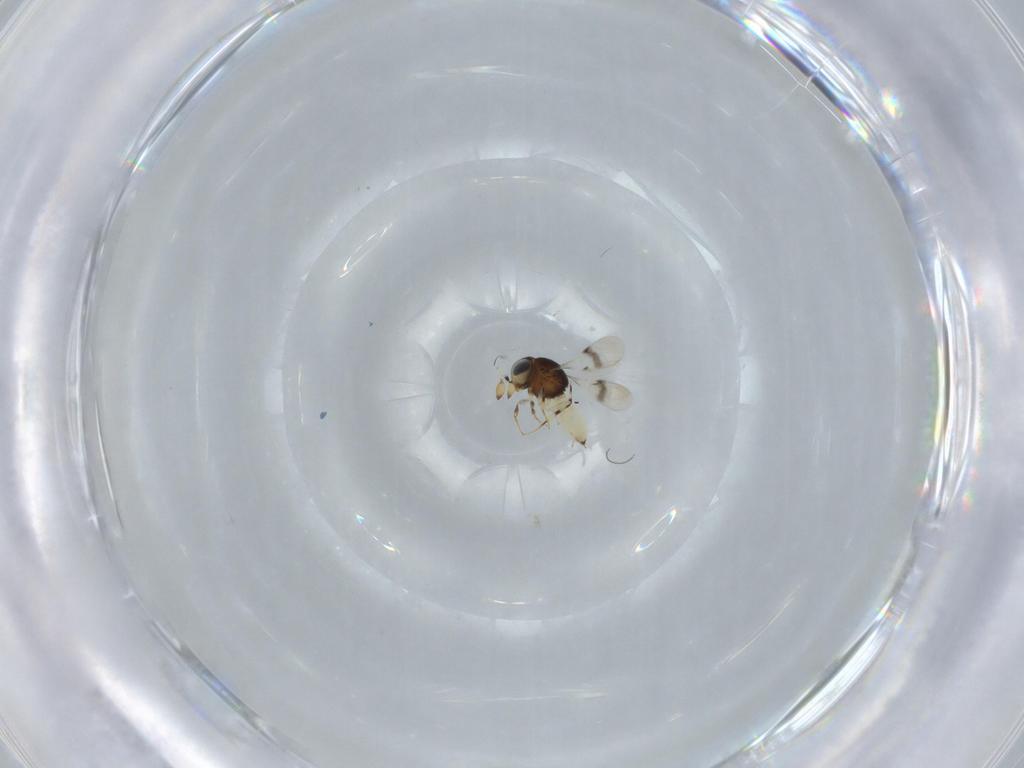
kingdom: Animalia
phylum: Arthropoda
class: Insecta
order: Hymenoptera
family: Scelionidae
